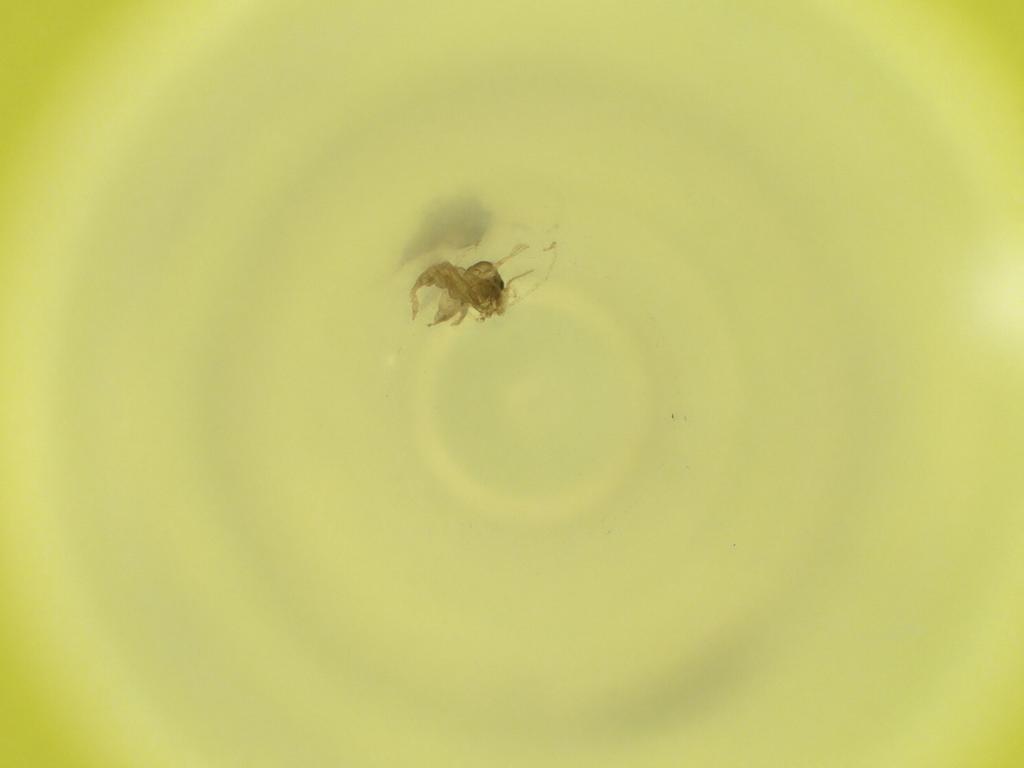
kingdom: Animalia
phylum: Arthropoda
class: Insecta
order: Diptera
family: Cecidomyiidae
